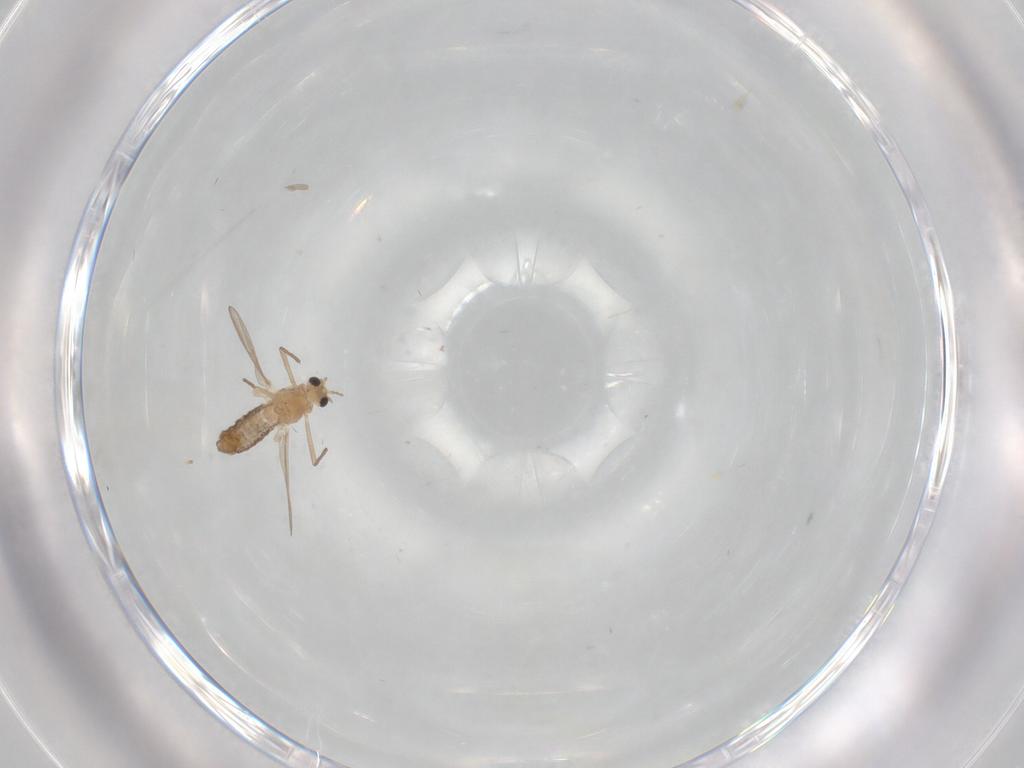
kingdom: Animalia
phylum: Arthropoda
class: Insecta
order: Diptera
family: Chironomidae
